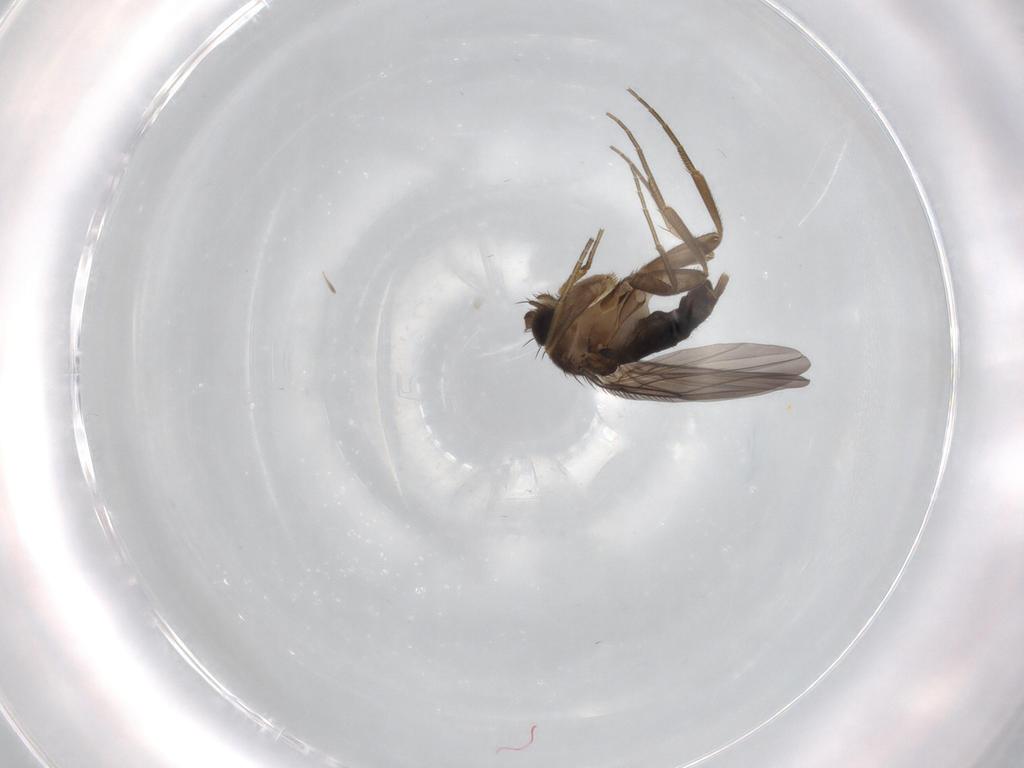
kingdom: Animalia
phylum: Arthropoda
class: Insecta
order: Diptera
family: Phoridae
